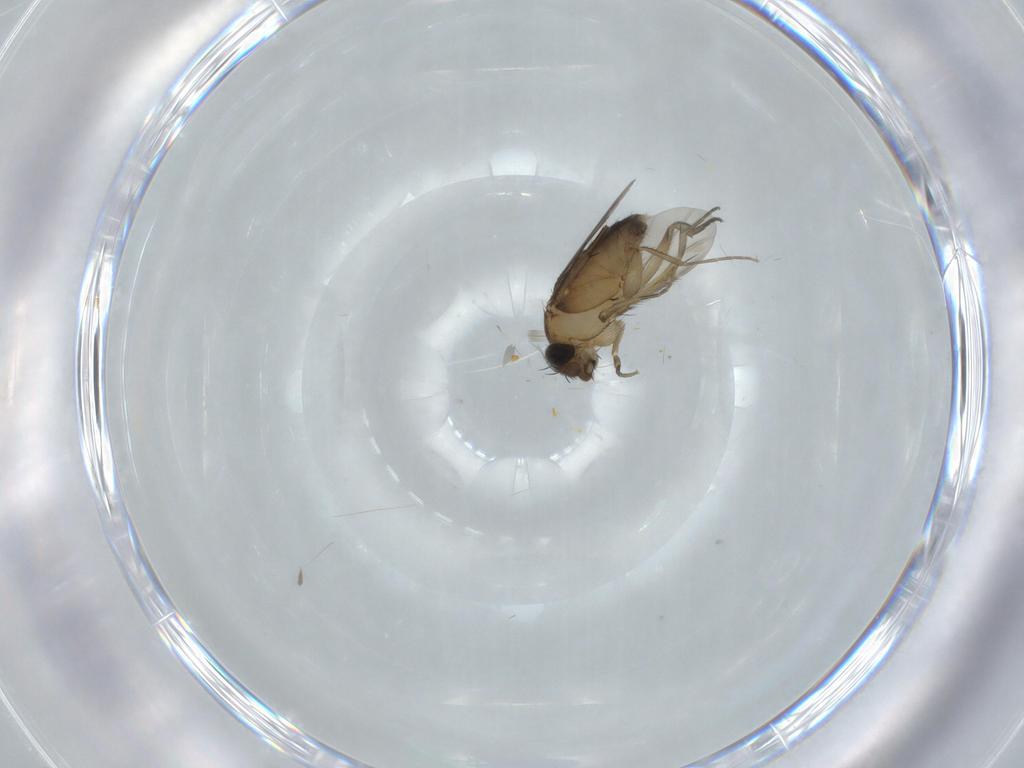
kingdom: Animalia
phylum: Arthropoda
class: Insecta
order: Diptera
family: Phoridae
